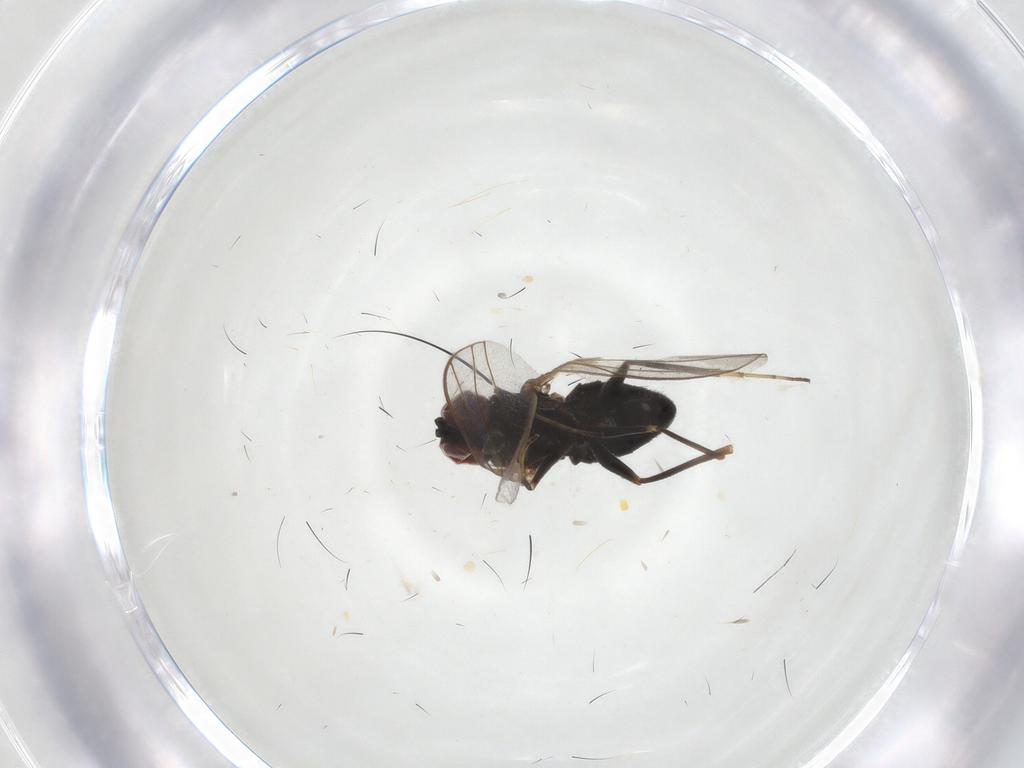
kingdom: Animalia
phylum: Arthropoda
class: Insecta
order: Diptera
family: Dolichopodidae
